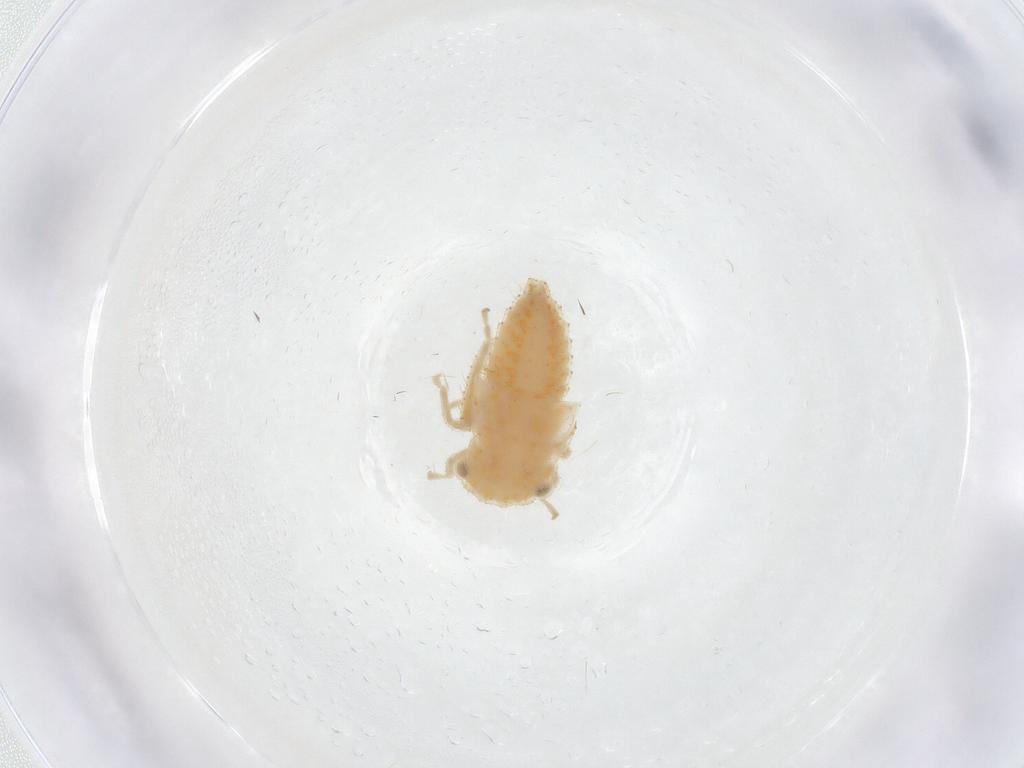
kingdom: Animalia
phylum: Arthropoda
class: Insecta
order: Hemiptera
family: Cicadellidae
